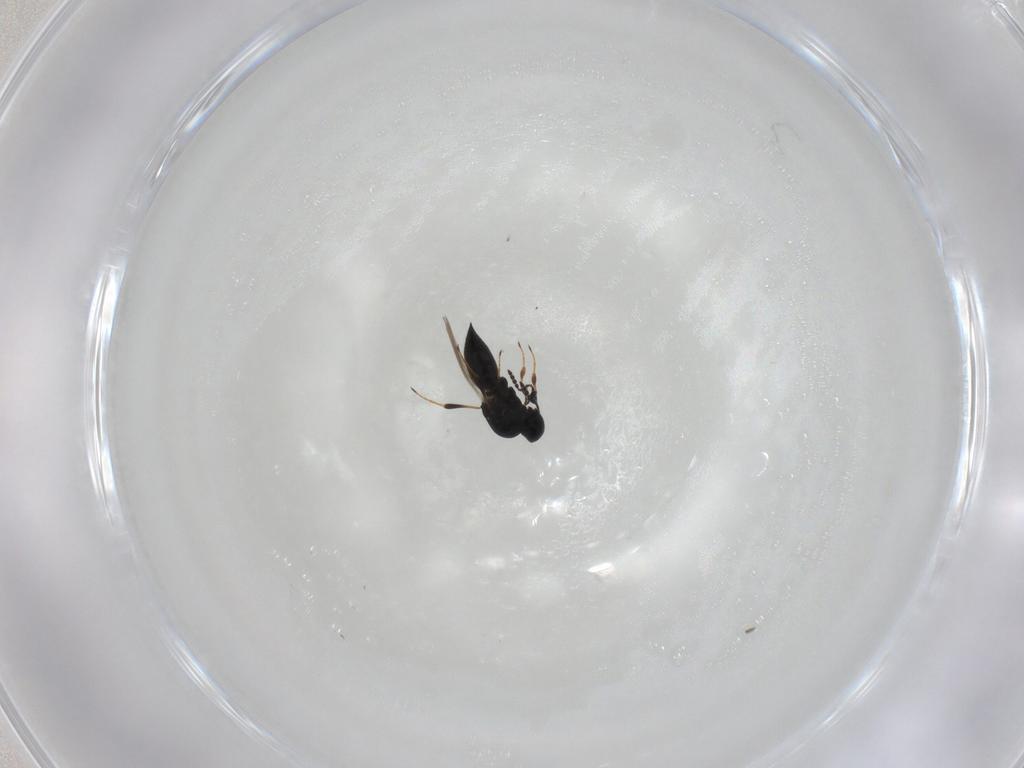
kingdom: Animalia
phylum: Arthropoda
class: Insecta
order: Hymenoptera
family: Platygastridae
